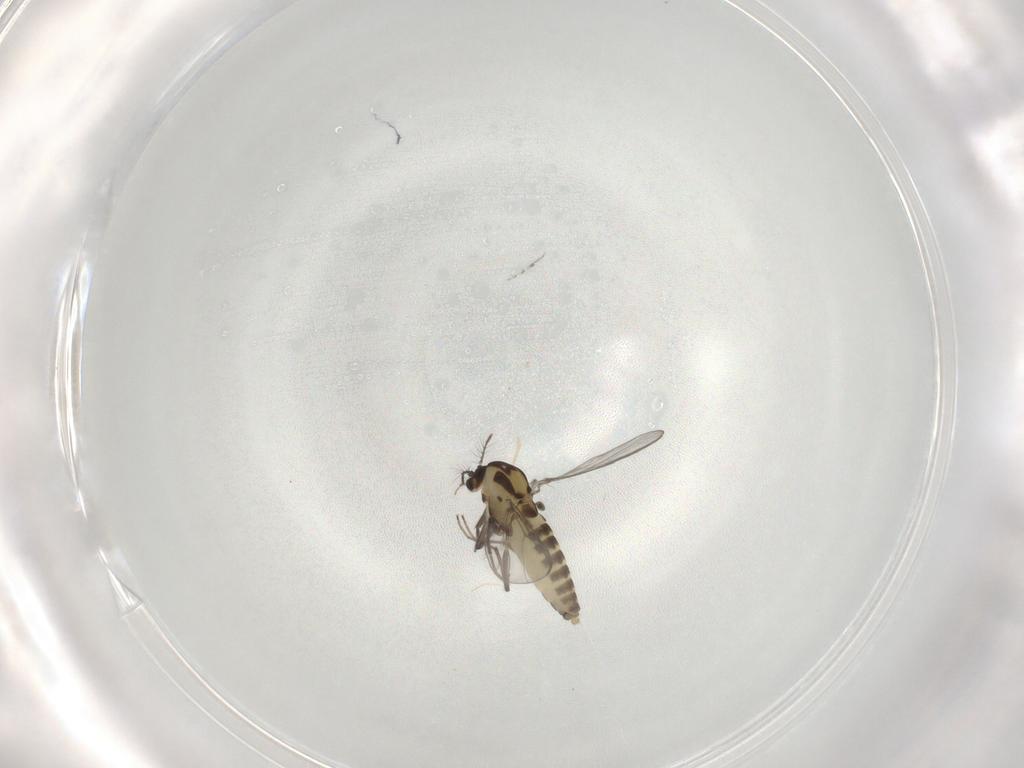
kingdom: Animalia
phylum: Arthropoda
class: Insecta
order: Diptera
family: Chironomidae
